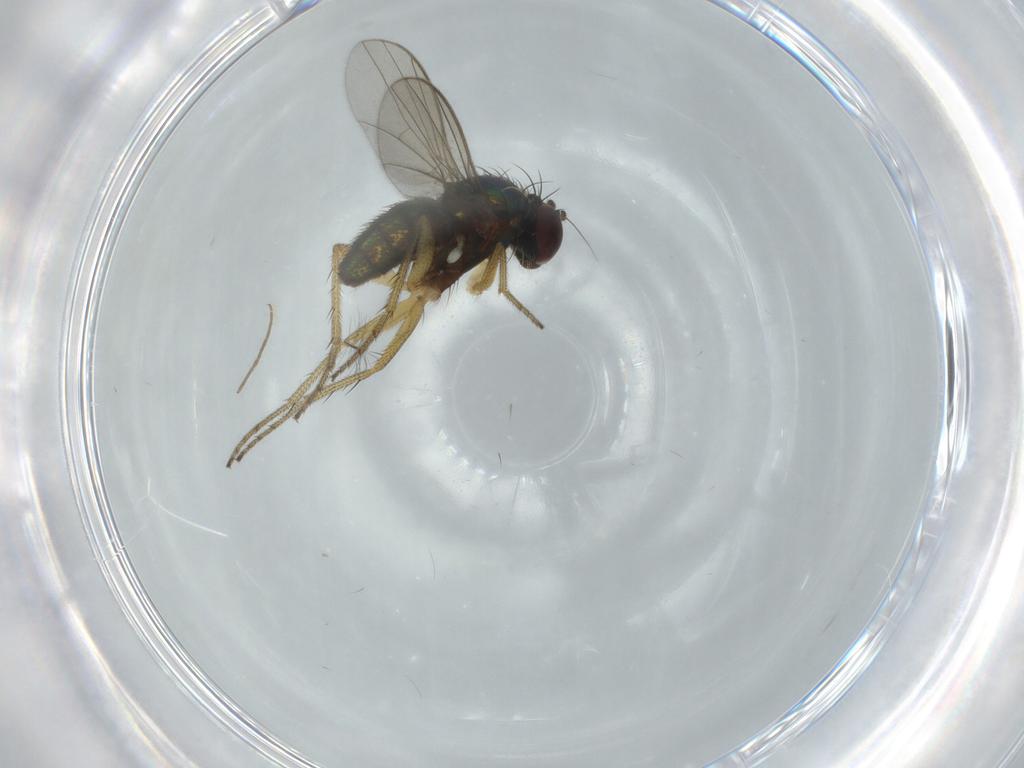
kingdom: Animalia
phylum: Arthropoda
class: Insecta
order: Diptera
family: Dolichopodidae
